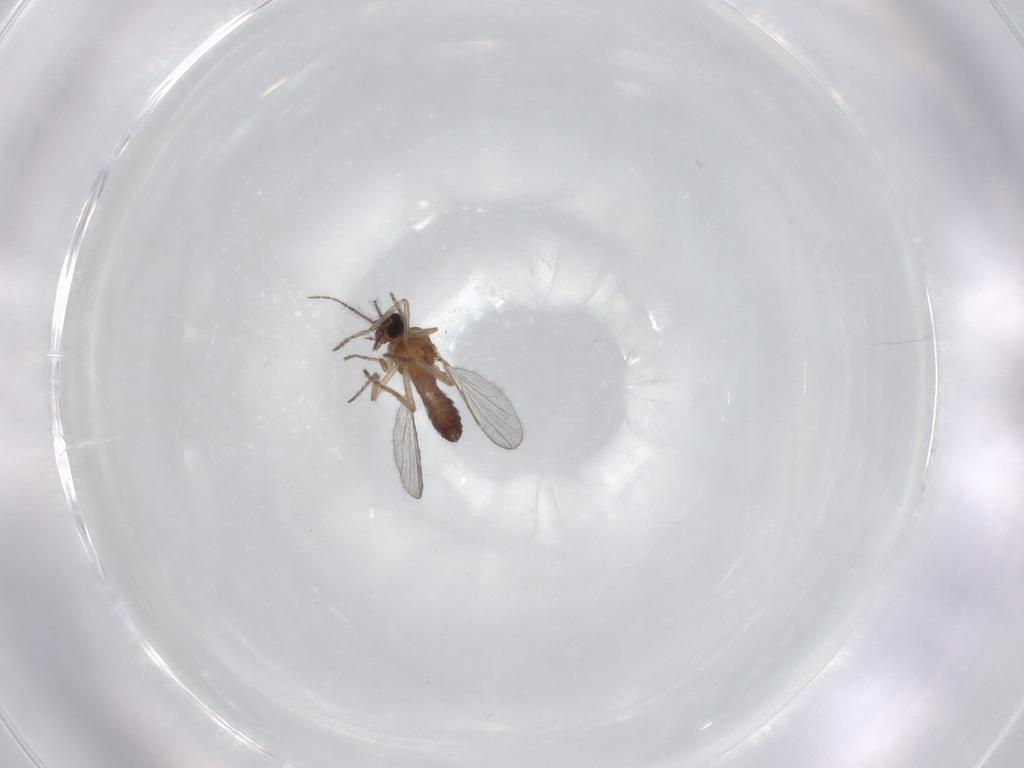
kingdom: Animalia
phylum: Arthropoda
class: Insecta
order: Diptera
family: Ceratopogonidae
